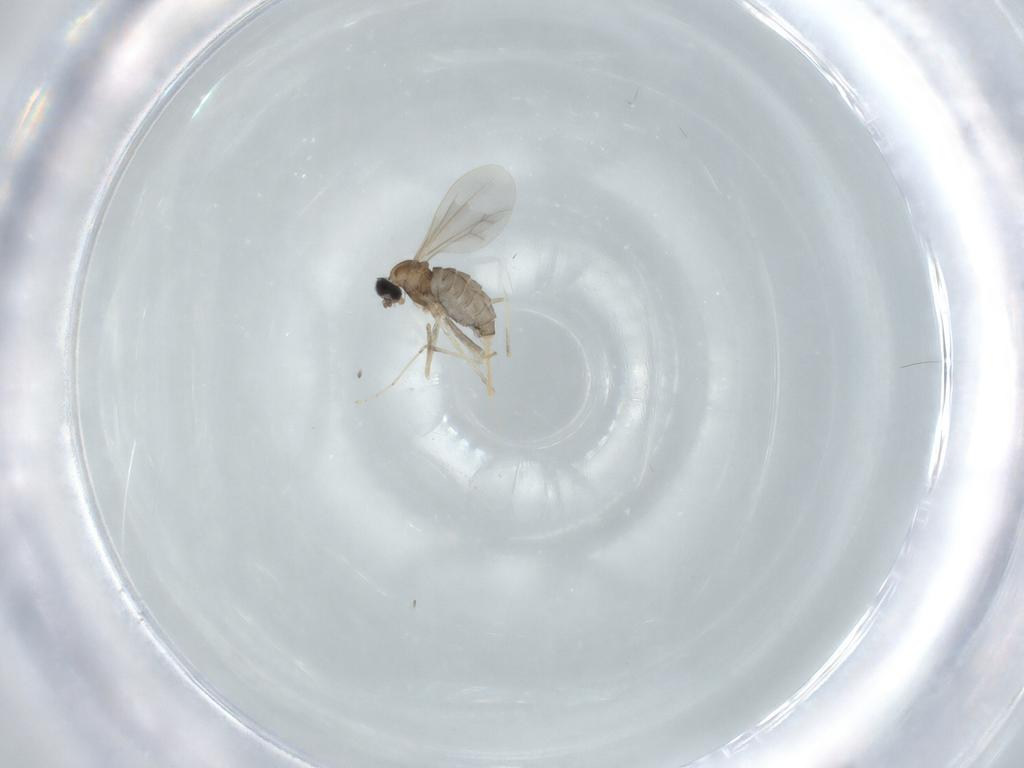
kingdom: Animalia
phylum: Arthropoda
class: Insecta
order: Diptera
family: Cecidomyiidae
